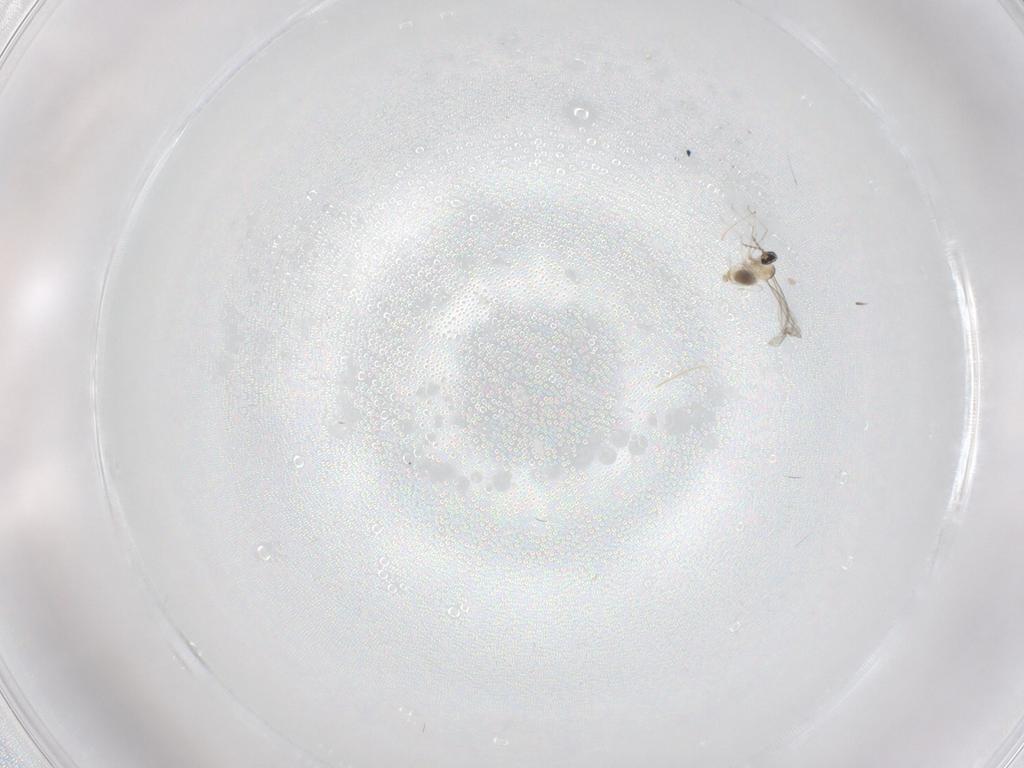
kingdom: Animalia
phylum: Arthropoda
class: Insecta
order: Diptera
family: Cecidomyiidae
